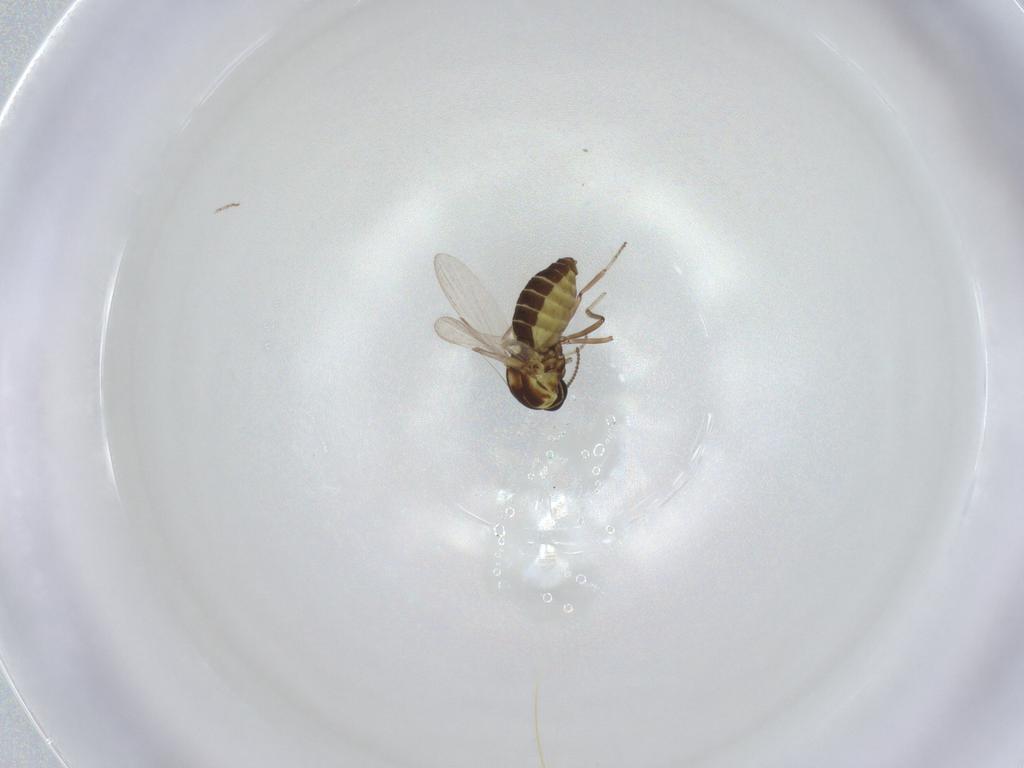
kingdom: Animalia
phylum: Arthropoda
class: Insecta
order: Diptera
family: Ceratopogonidae
